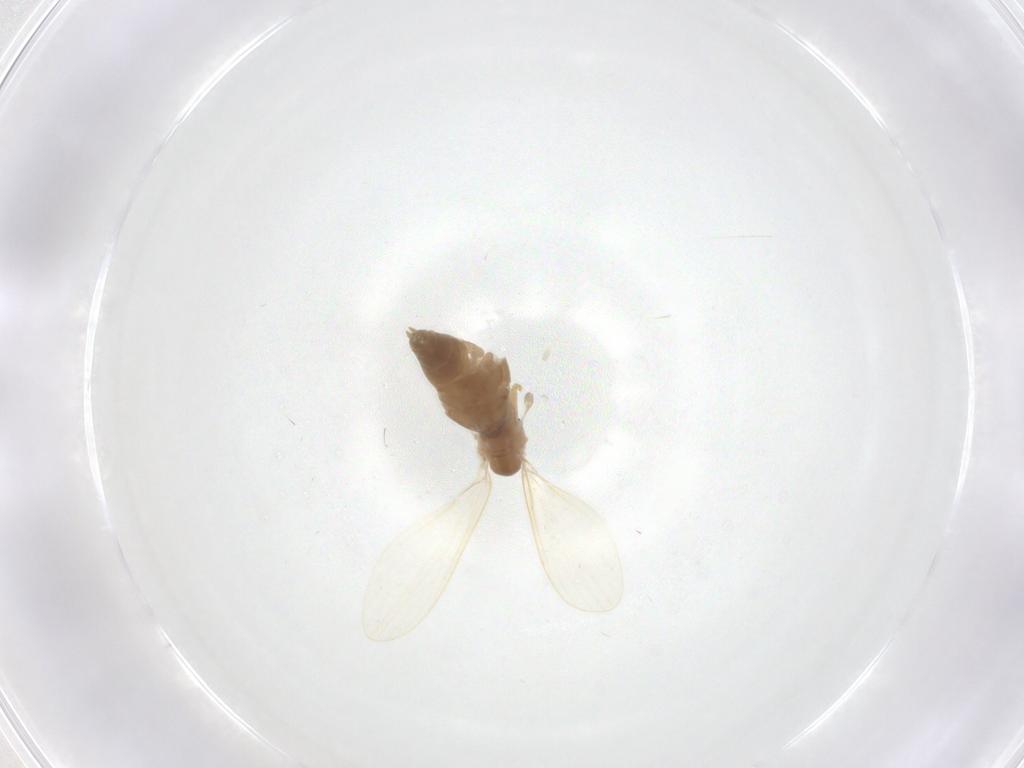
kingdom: Animalia
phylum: Arthropoda
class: Insecta
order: Diptera
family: Psychodidae
